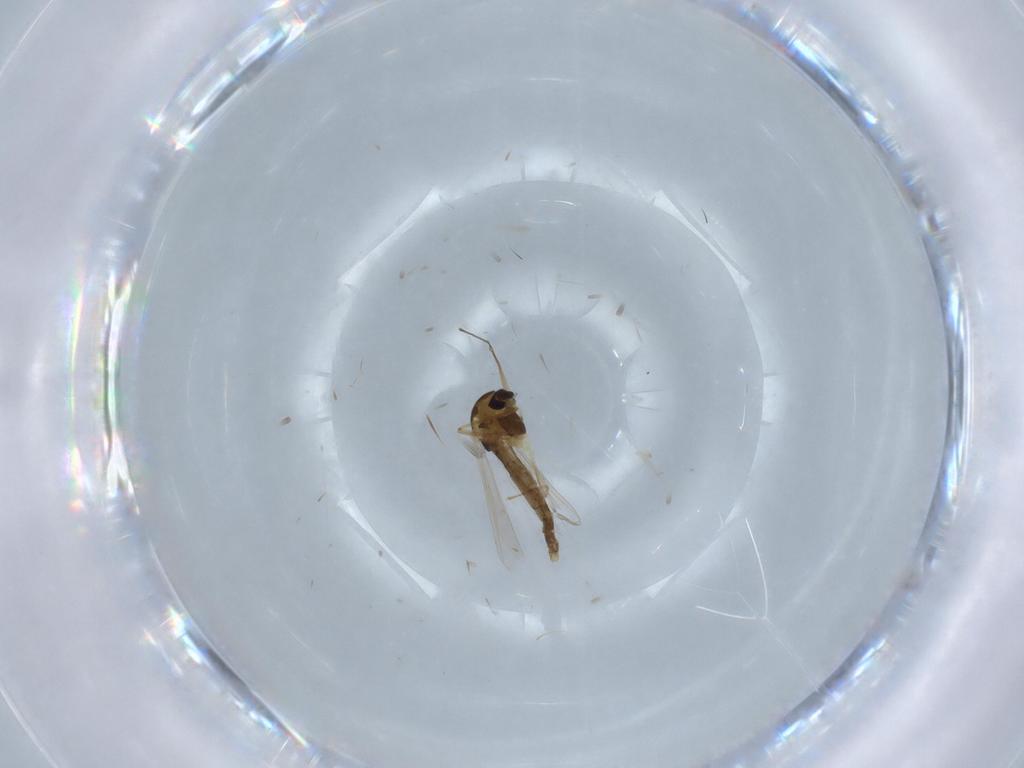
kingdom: Animalia
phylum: Arthropoda
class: Insecta
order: Diptera
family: Chironomidae
